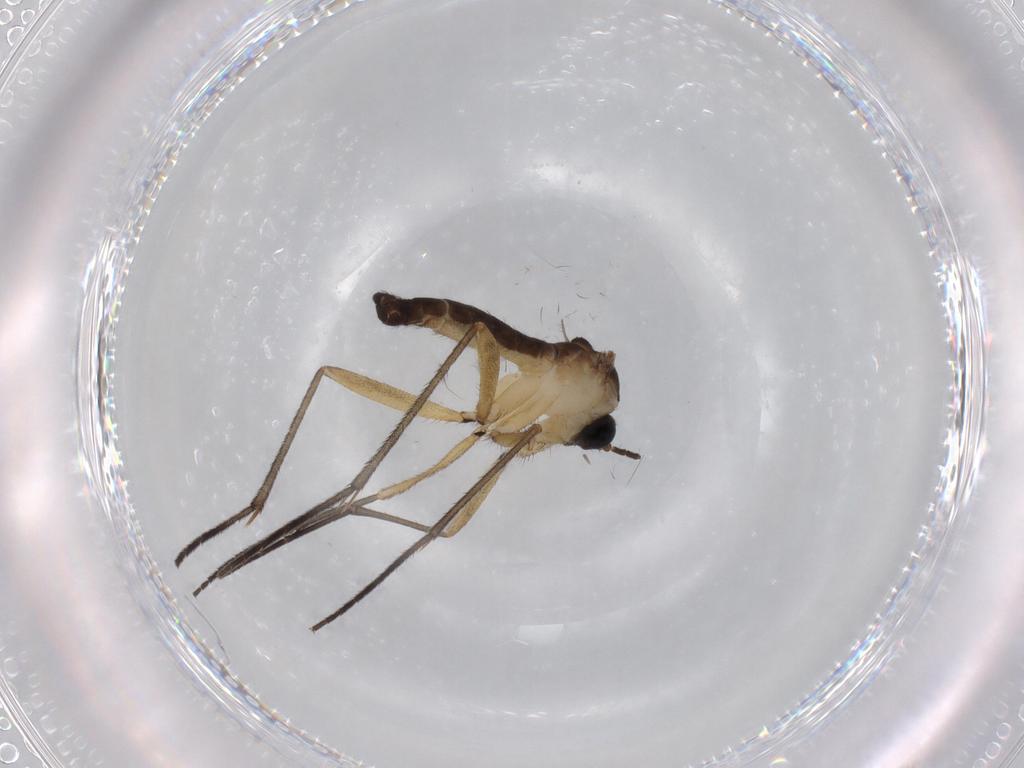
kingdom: Animalia
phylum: Arthropoda
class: Insecta
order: Diptera
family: Sciaridae
